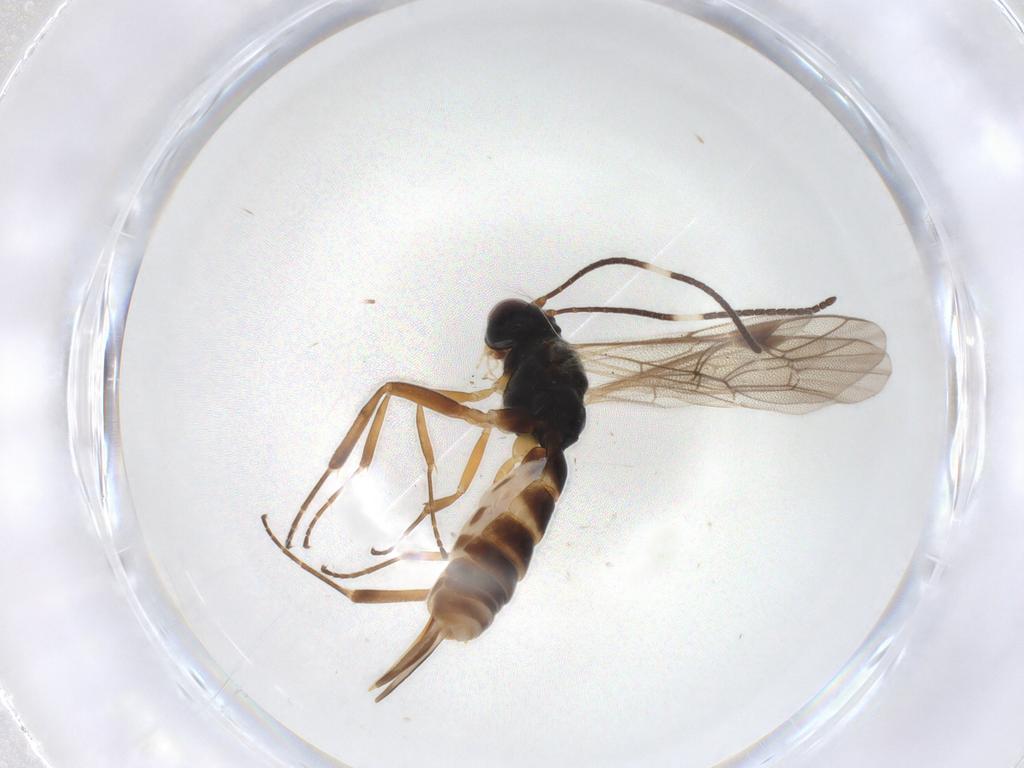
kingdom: Animalia
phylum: Arthropoda
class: Insecta
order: Hymenoptera
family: Ichneumonidae
